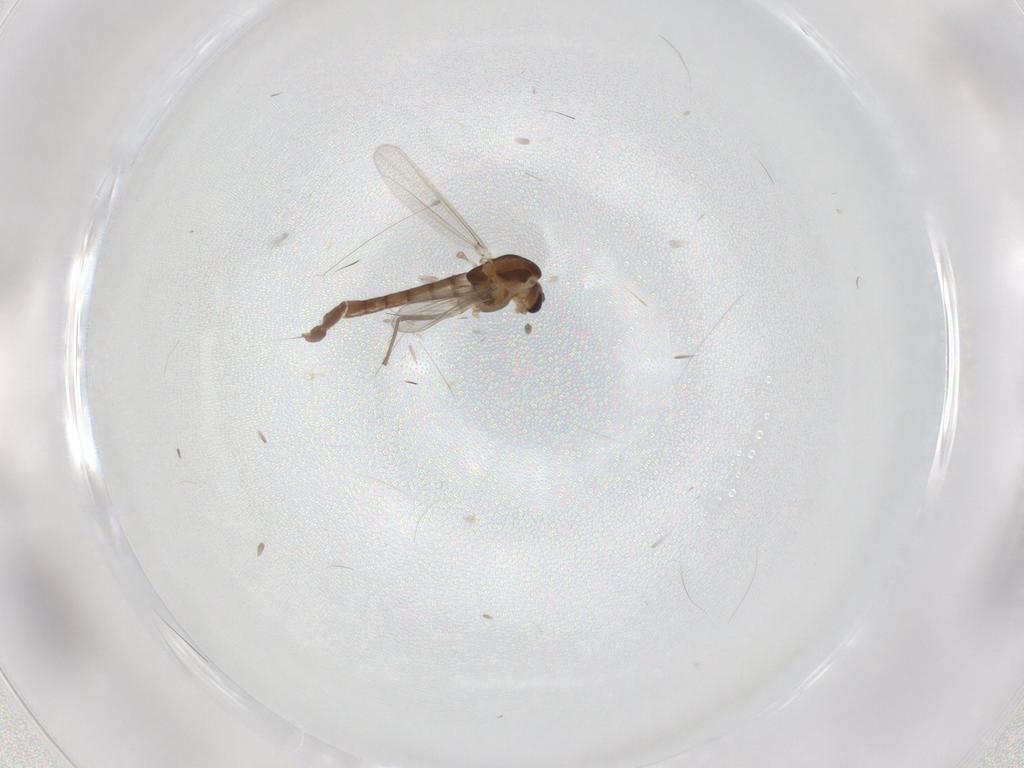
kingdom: Animalia
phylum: Arthropoda
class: Insecta
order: Diptera
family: Chironomidae
